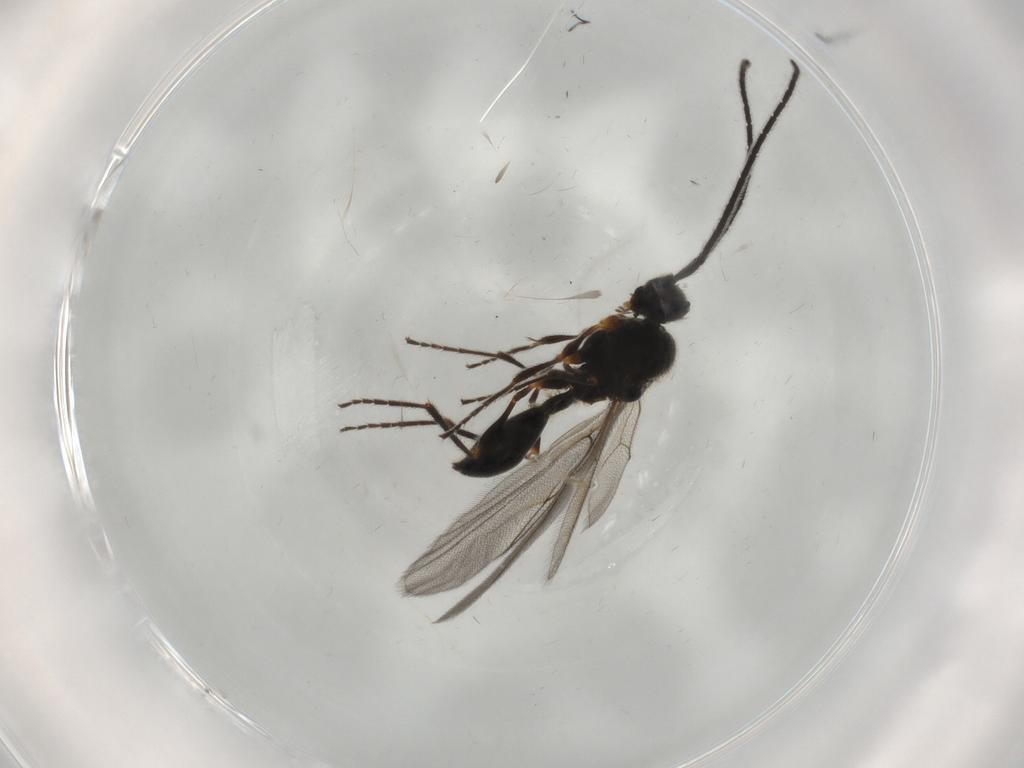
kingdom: Animalia
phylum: Arthropoda
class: Insecta
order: Hymenoptera
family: Diapriidae
